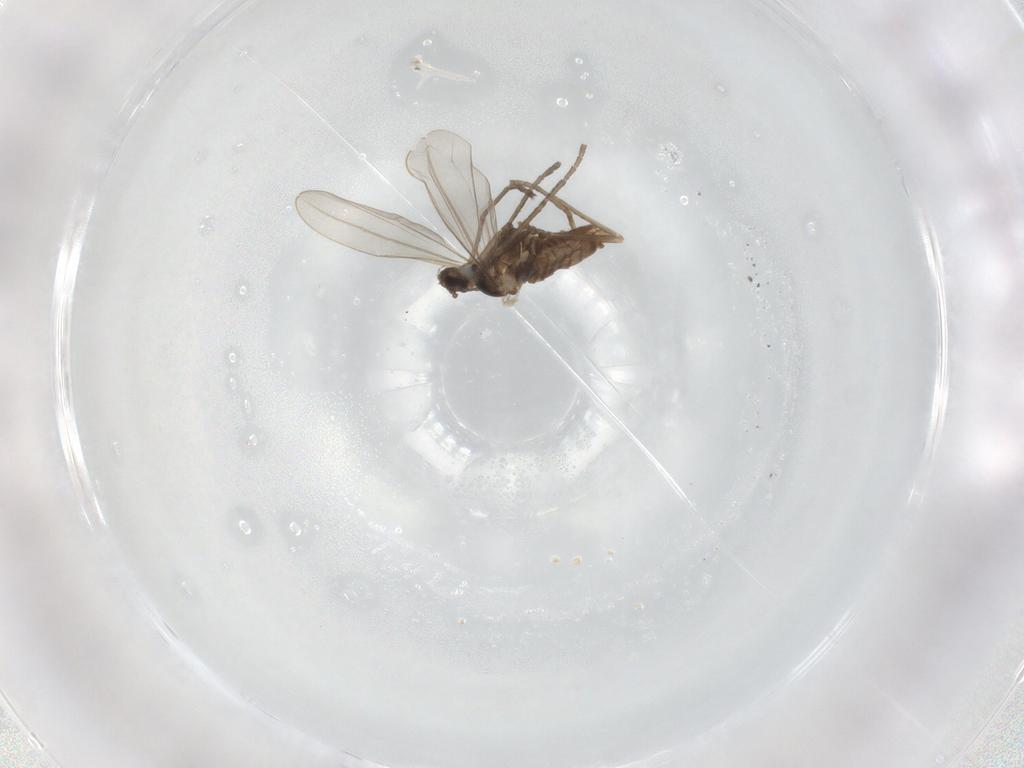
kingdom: Animalia
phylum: Arthropoda
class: Insecta
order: Diptera
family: Cecidomyiidae
